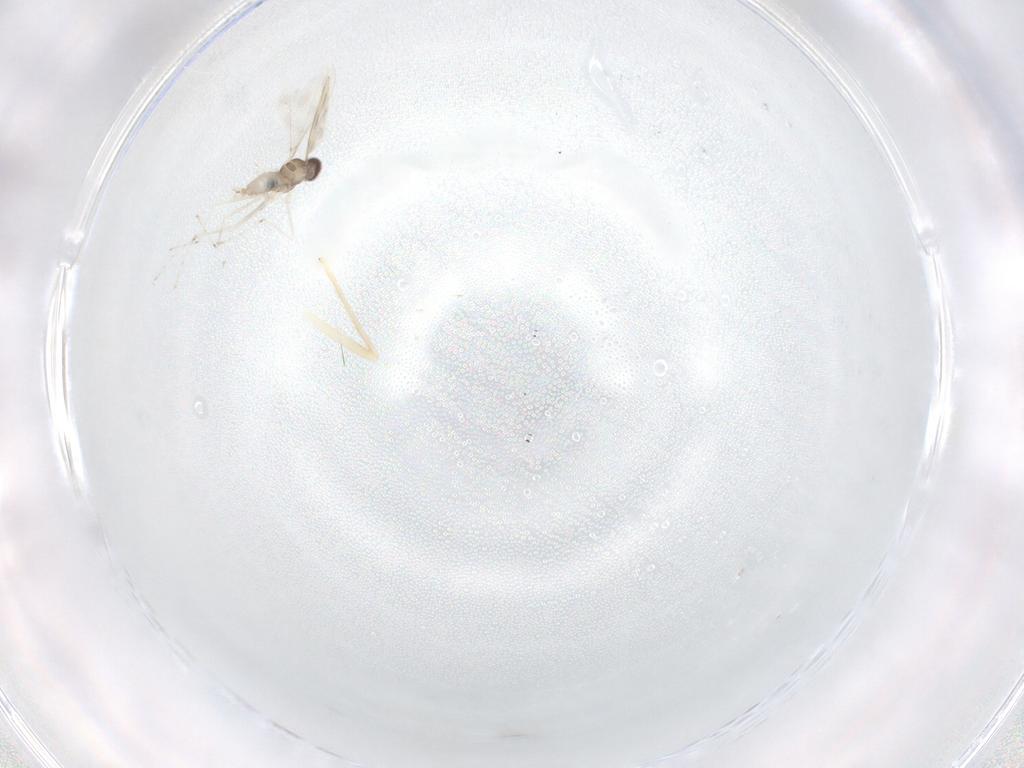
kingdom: Animalia
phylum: Arthropoda
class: Insecta
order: Diptera
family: Chironomidae
